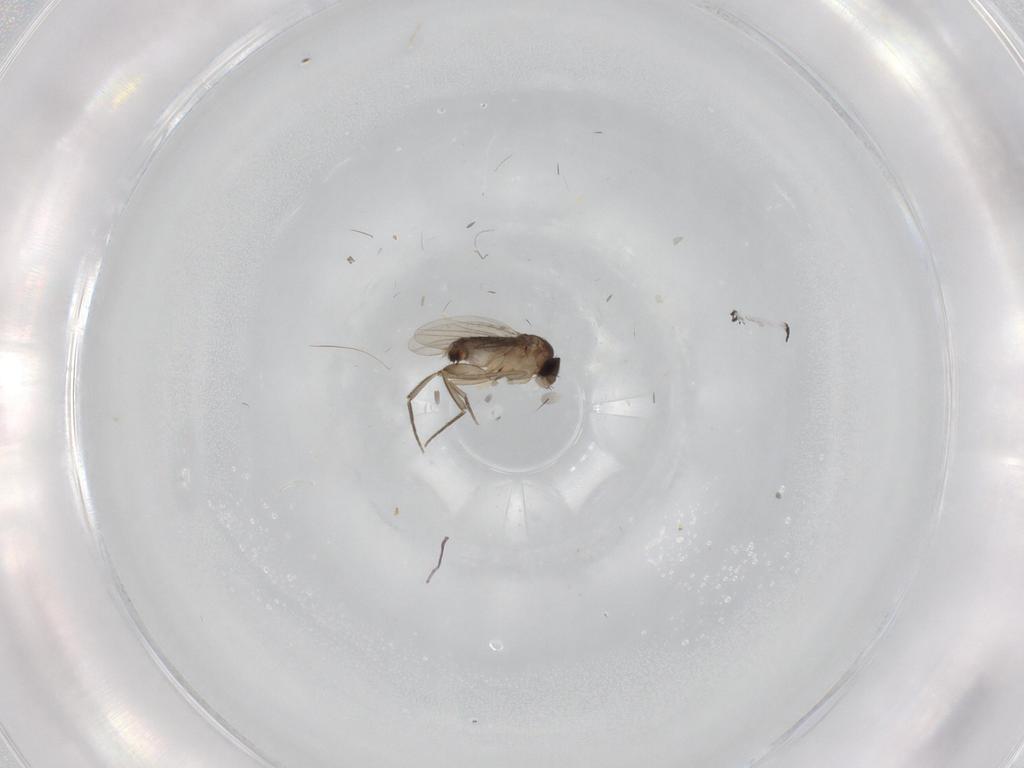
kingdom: Animalia
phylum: Arthropoda
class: Insecta
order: Diptera
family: Phoridae
